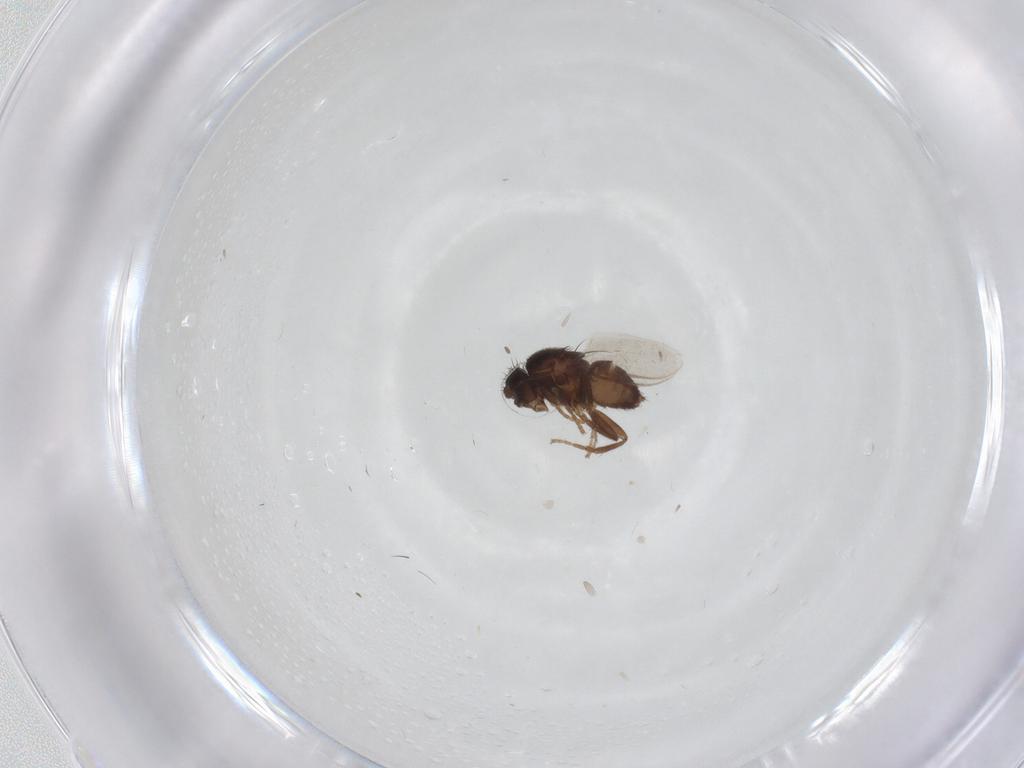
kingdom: Animalia
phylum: Arthropoda
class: Insecta
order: Diptera
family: Sphaeroceridae
